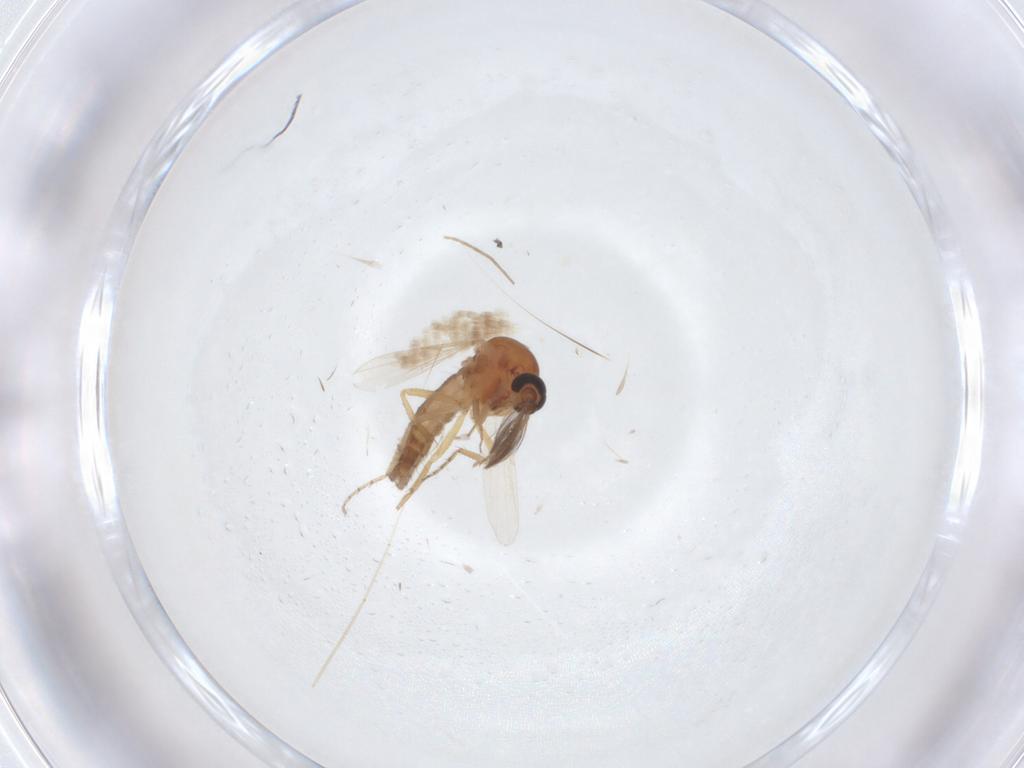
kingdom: Animalia
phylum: Arthropoda
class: Insecta
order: Diptera
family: Ceratopogonidae
